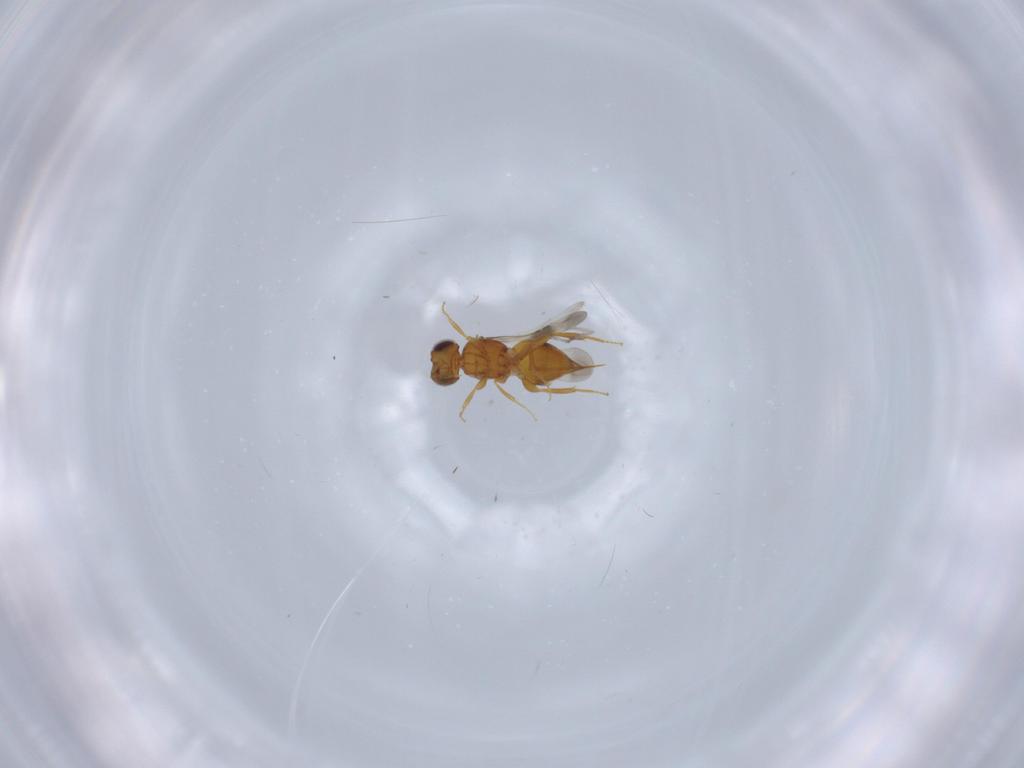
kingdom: Animalia
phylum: Arthropoda
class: Insecta
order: Hymenoptera
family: Ceraphronidae
